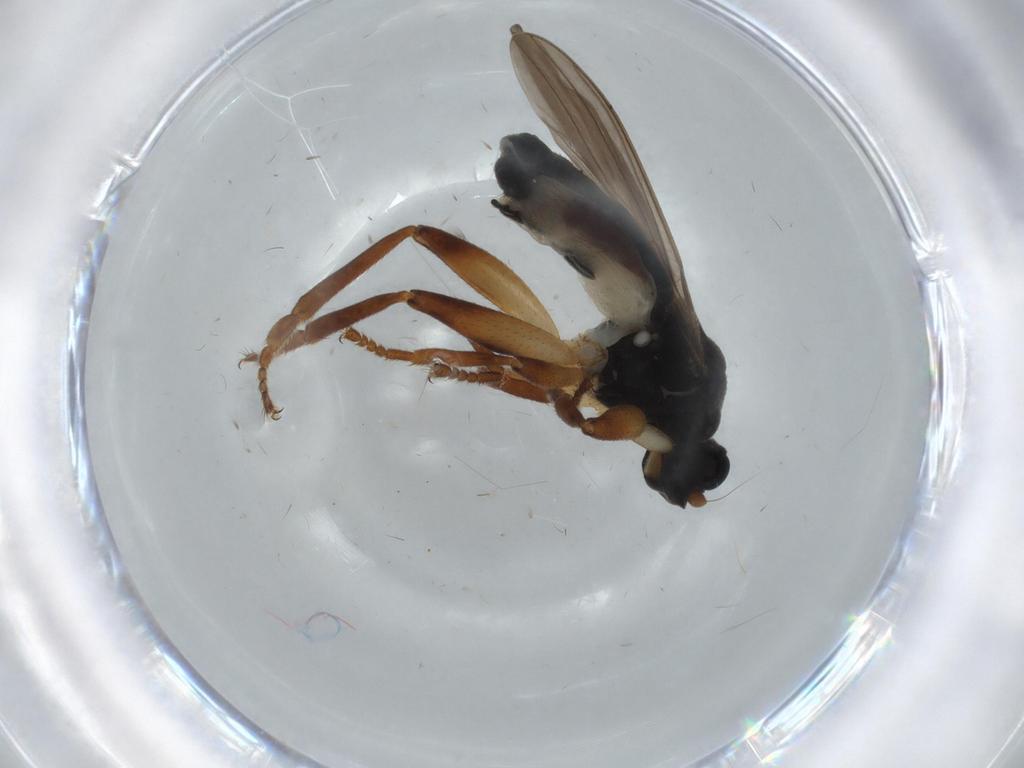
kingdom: Animalia
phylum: Arthropoda
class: Insecta
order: Diptera
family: Sphaeroceridae
